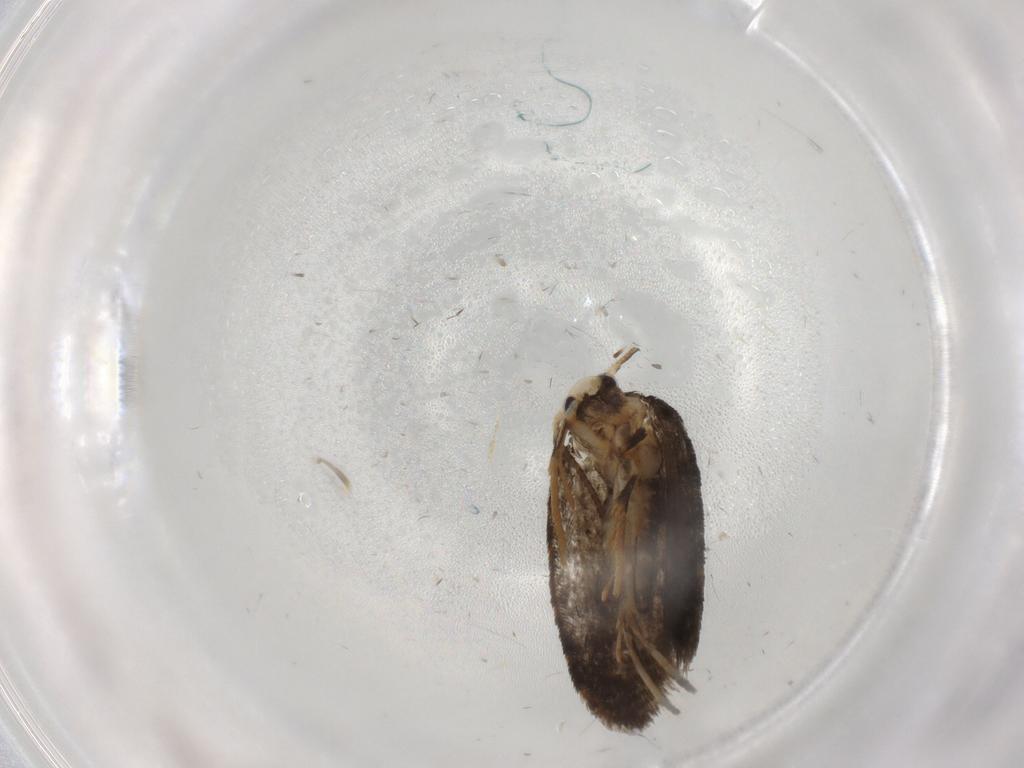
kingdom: Animalia
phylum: Arthropoda
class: Insecta
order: Lepidoptera
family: Psychidae
